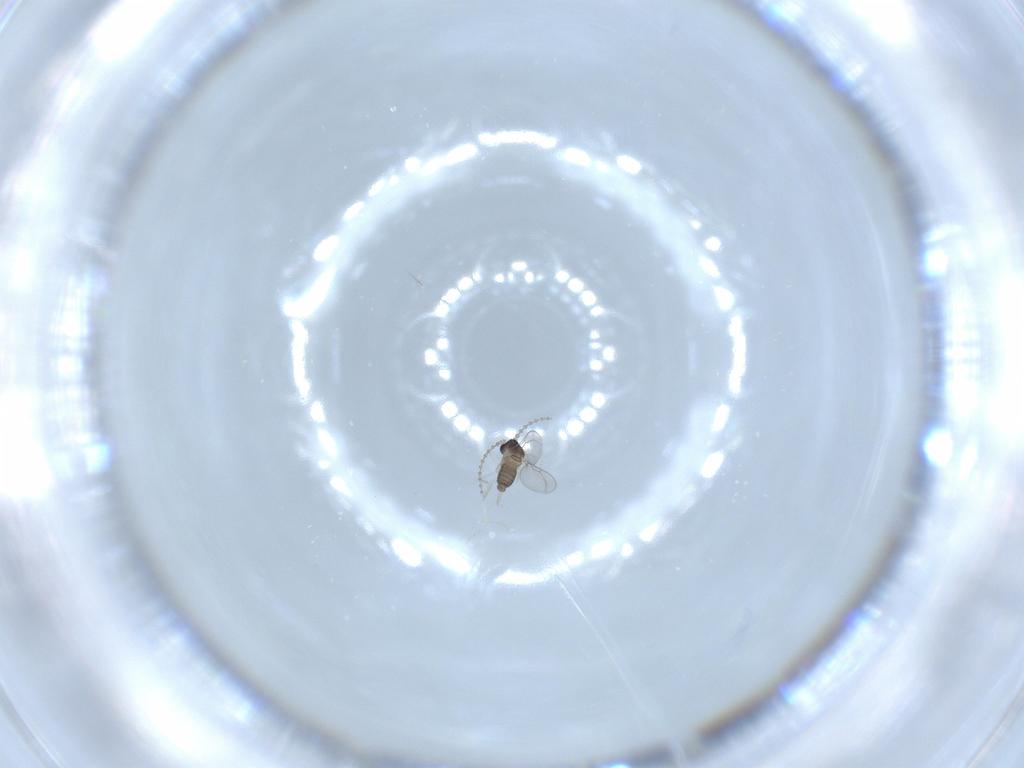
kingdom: Animalia
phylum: Arthropoda
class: Insecta
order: Diptera
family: Cecidomyiidae
